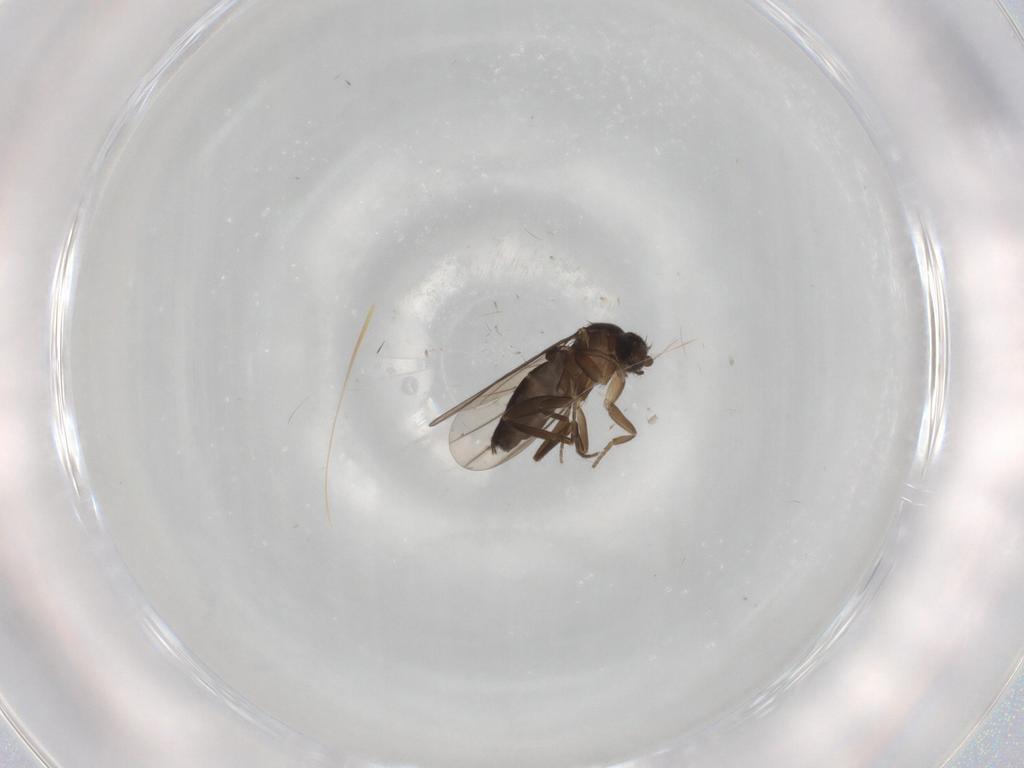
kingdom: Animalia
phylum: Arthropoda
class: Insecta
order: Diptera
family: Phoridae
